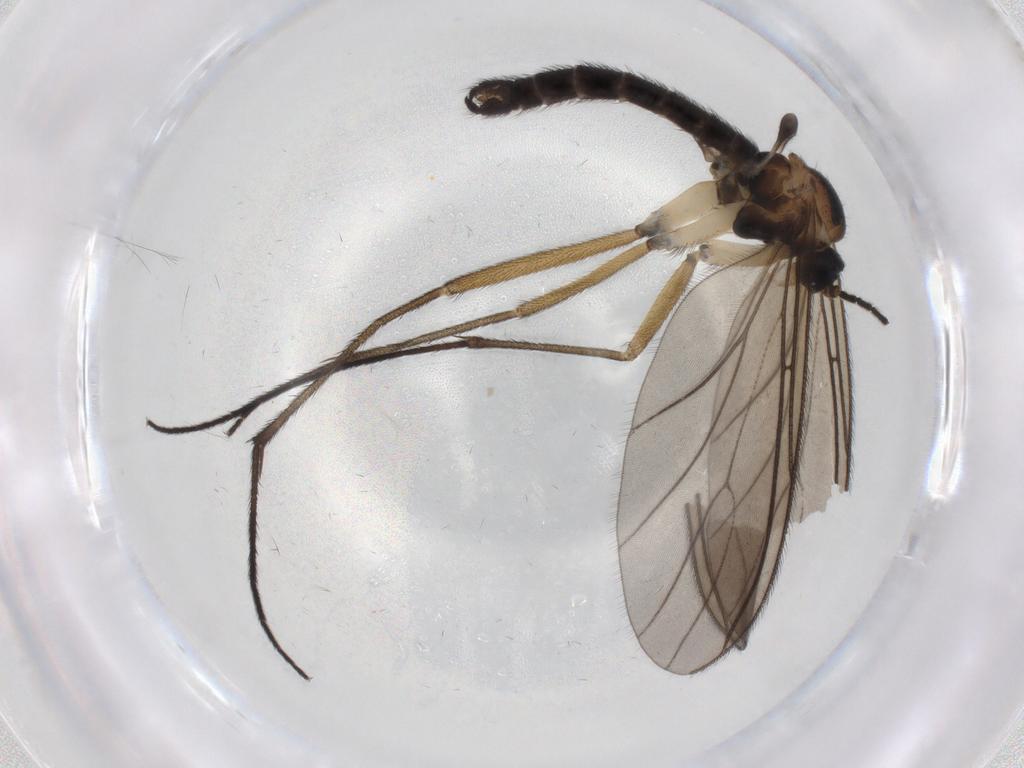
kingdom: Animalia
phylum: Arthropoda
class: Insecta
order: Diptera
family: Sciaridae
